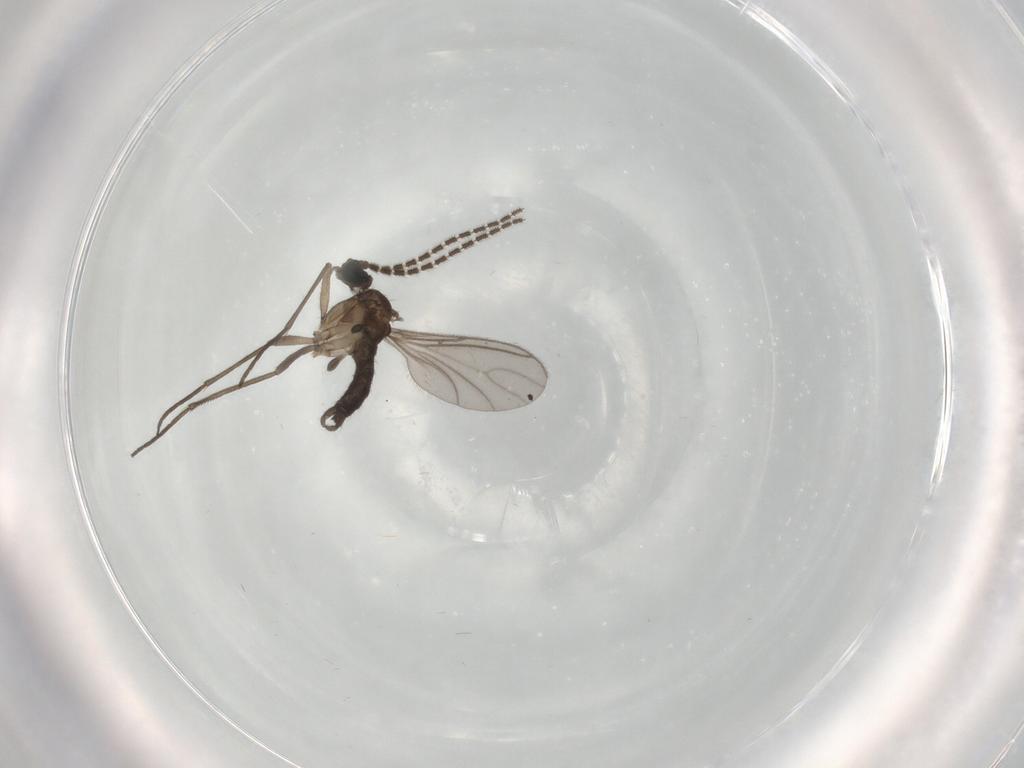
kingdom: Animalia
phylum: Arthropoda
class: Insecta
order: Diptera
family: Sciaridae
